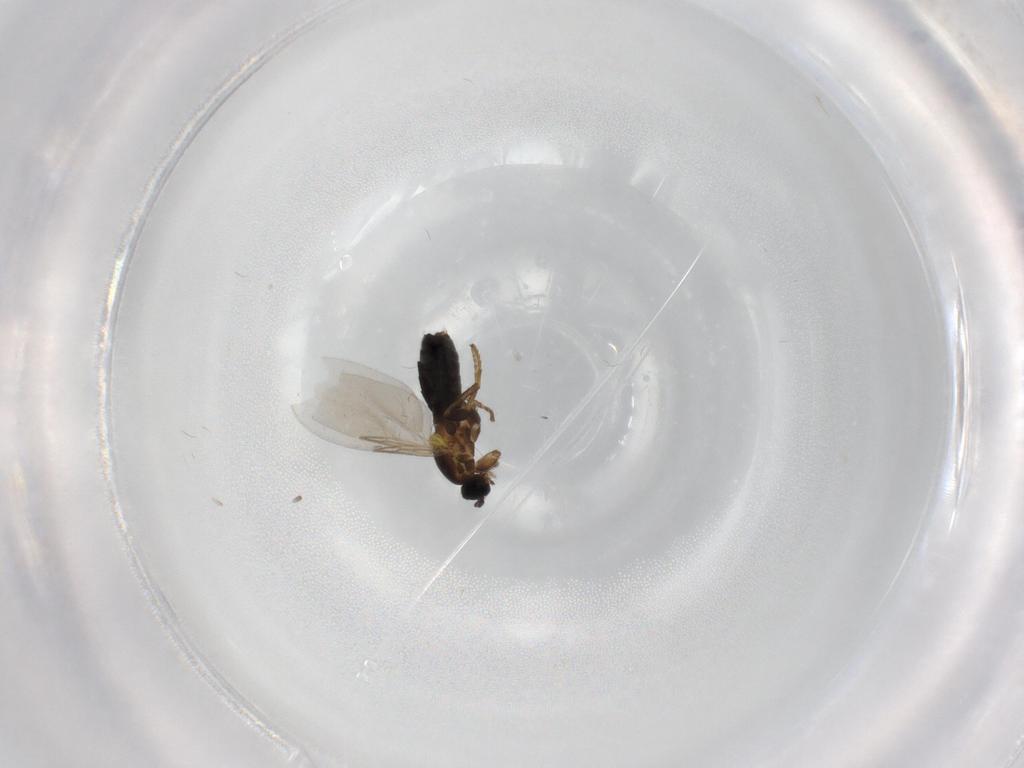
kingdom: Animalia
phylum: Arthropoda
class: Insecta
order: Diptera
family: Scatopsidae
